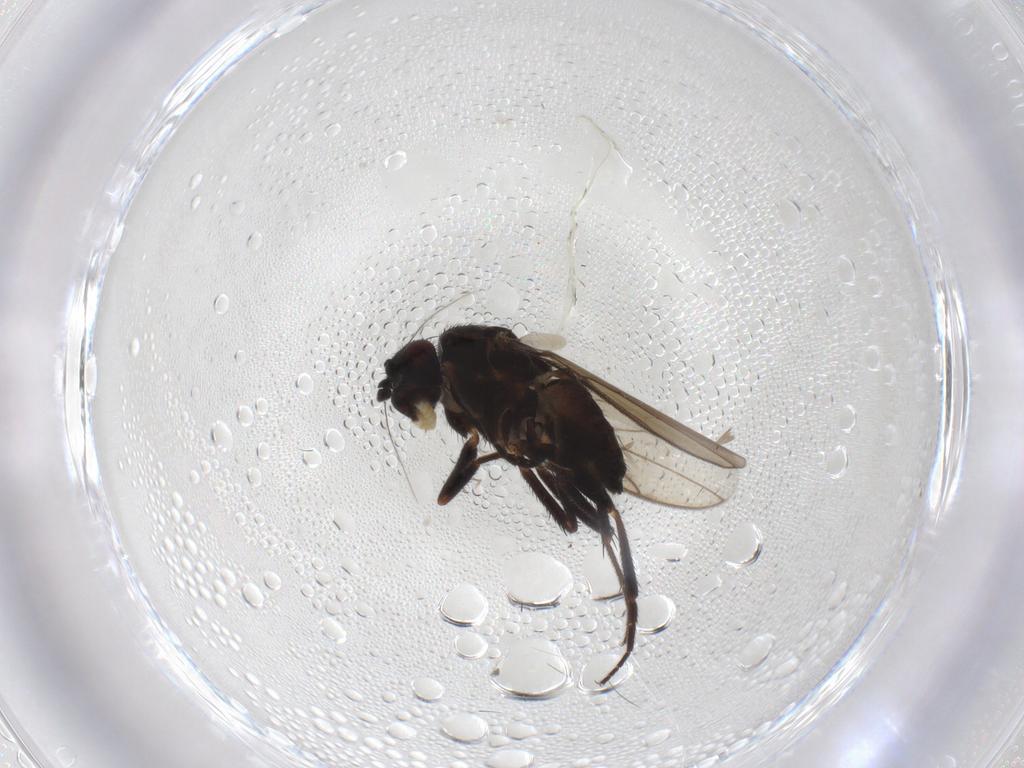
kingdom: Animalia
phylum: Arthropoda
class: Insecta
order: Diptera
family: Sphaeroceridae
